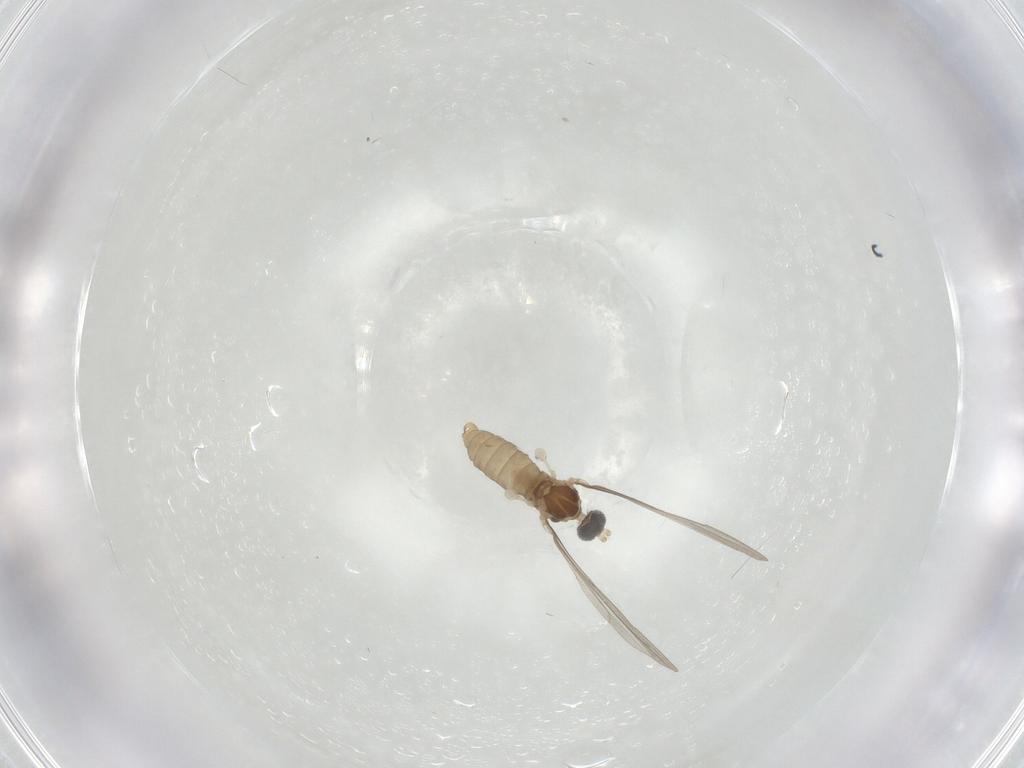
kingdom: Animalia
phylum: Arthropoda
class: Insecta
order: Diptera
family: Cecidomyiidae
